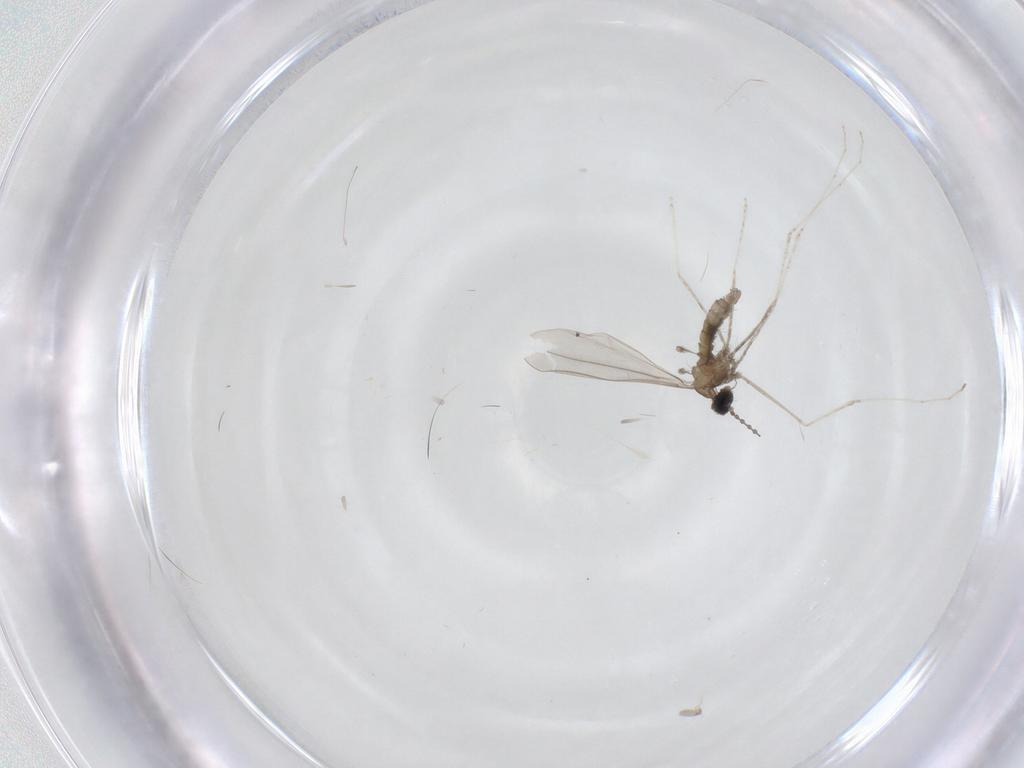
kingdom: Animalia
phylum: Arthropoda
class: Insecta
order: Diptera
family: Cecidomyiidae
